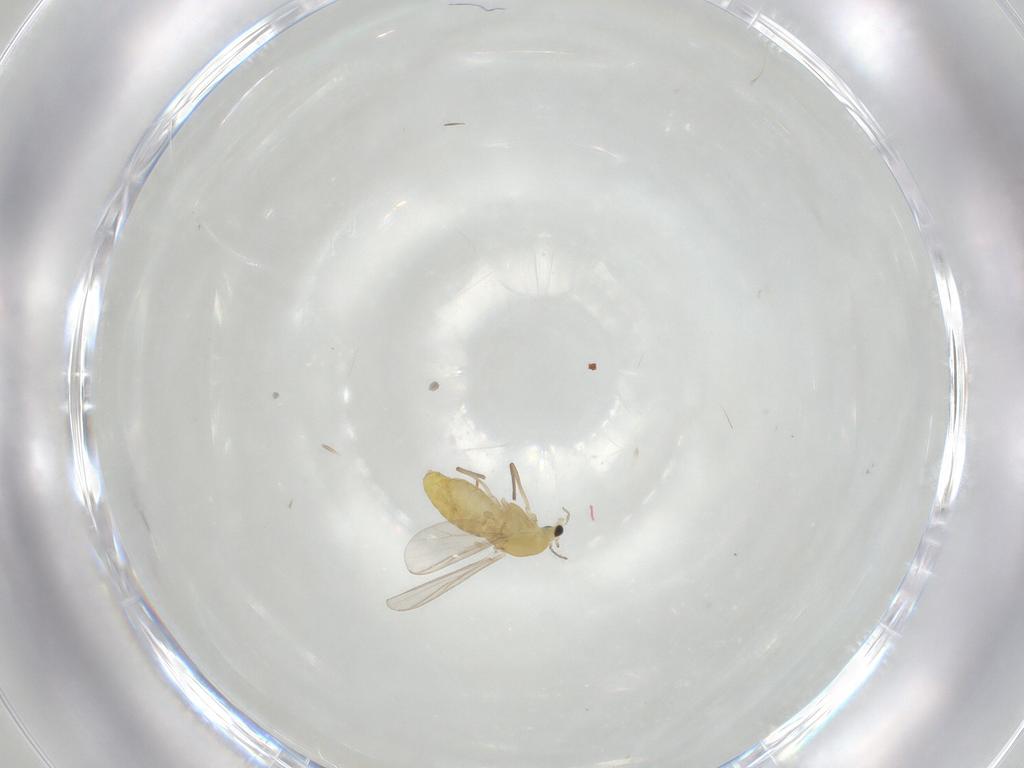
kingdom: Animalia
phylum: Arthropoda
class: Insecta
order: Diptera
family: Chironomidae
